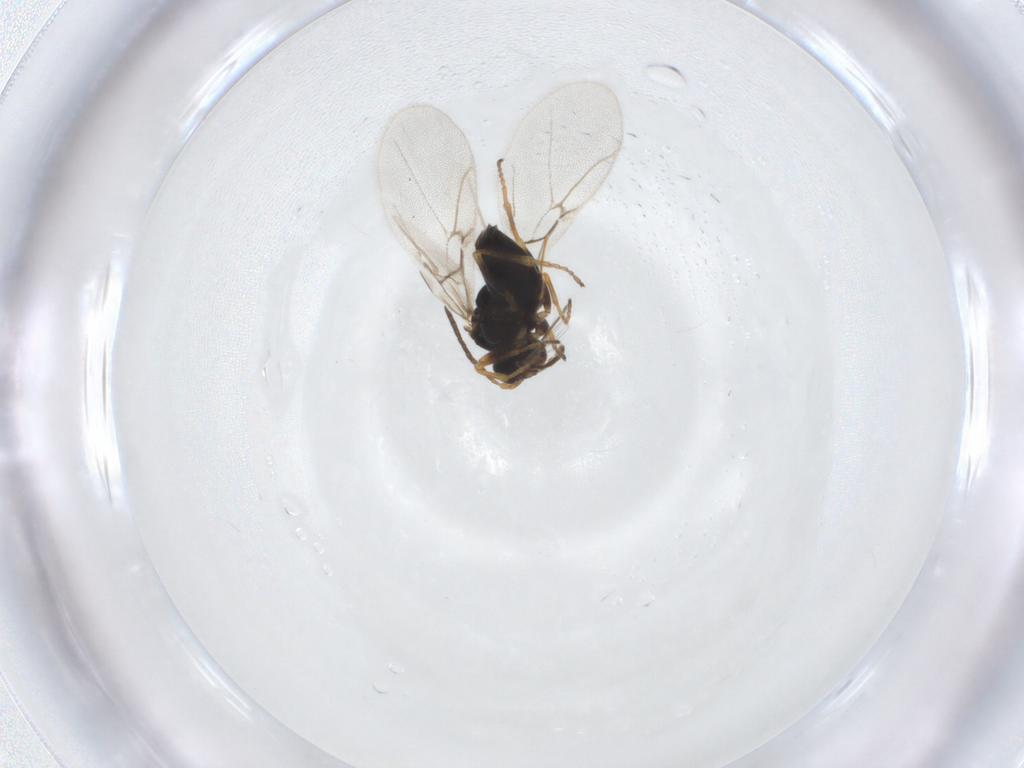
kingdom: Animalia
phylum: Arthropoda
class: Insecta
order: Hymenoptera
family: Cynipidae
